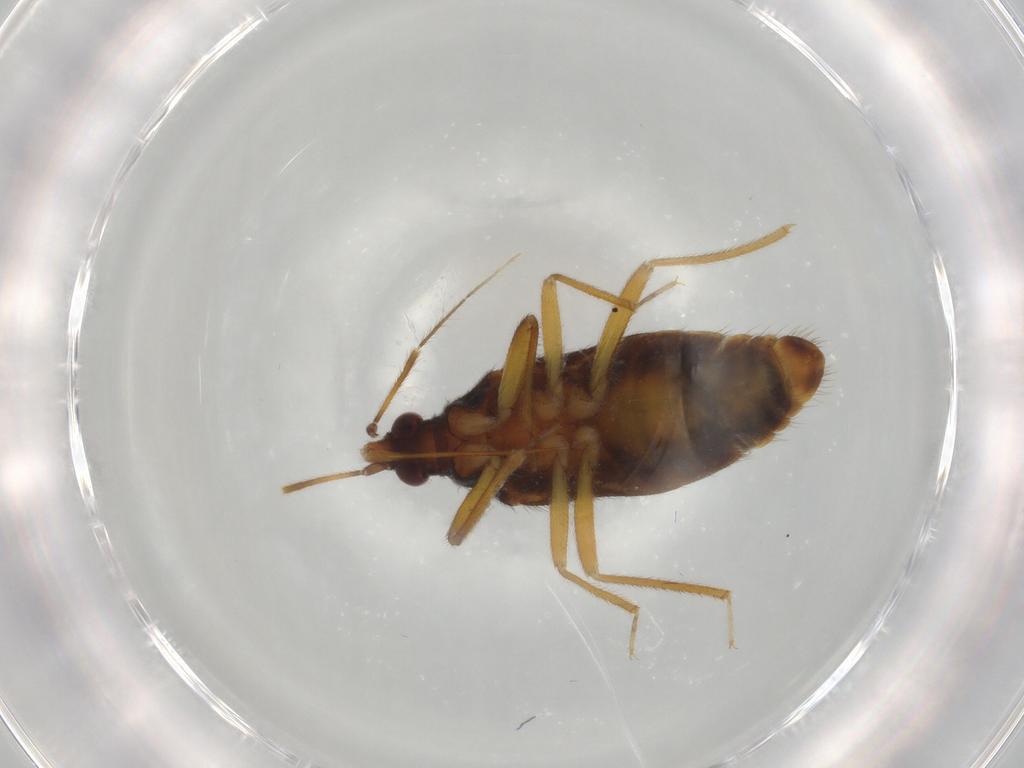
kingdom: Animalia
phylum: Arthropoda
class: Insecta
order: Hemiptera
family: Anthocoridae
